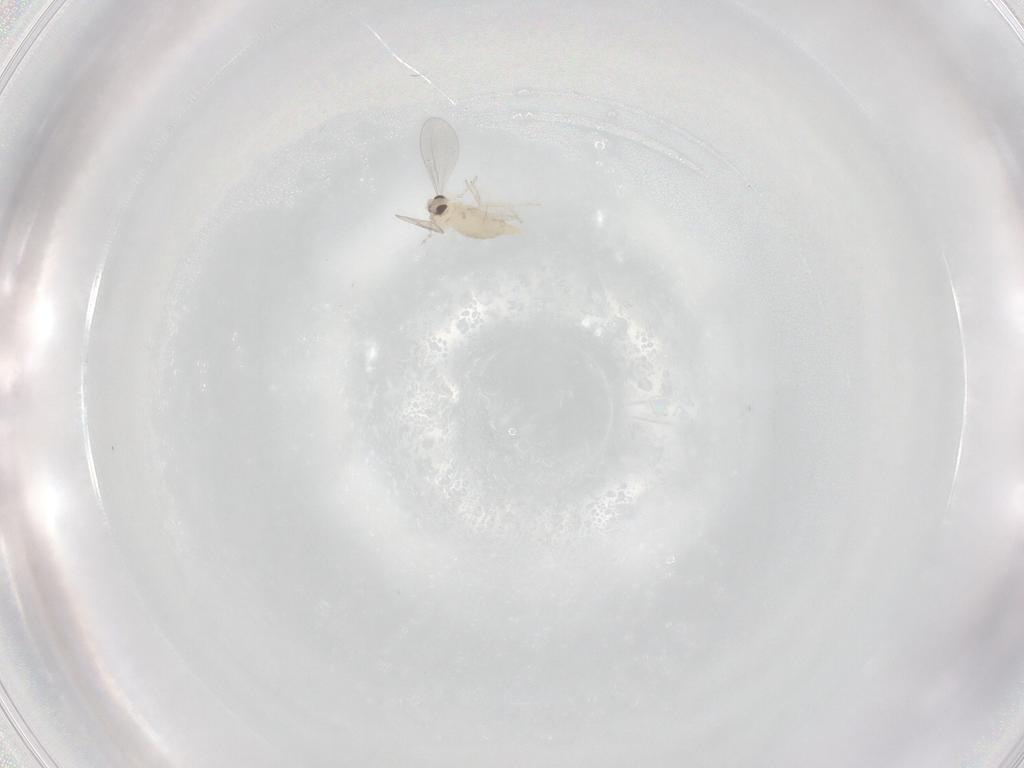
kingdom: Animalia
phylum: Arthropoda
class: Insecta
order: Diptera
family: Cecidomyiidae
